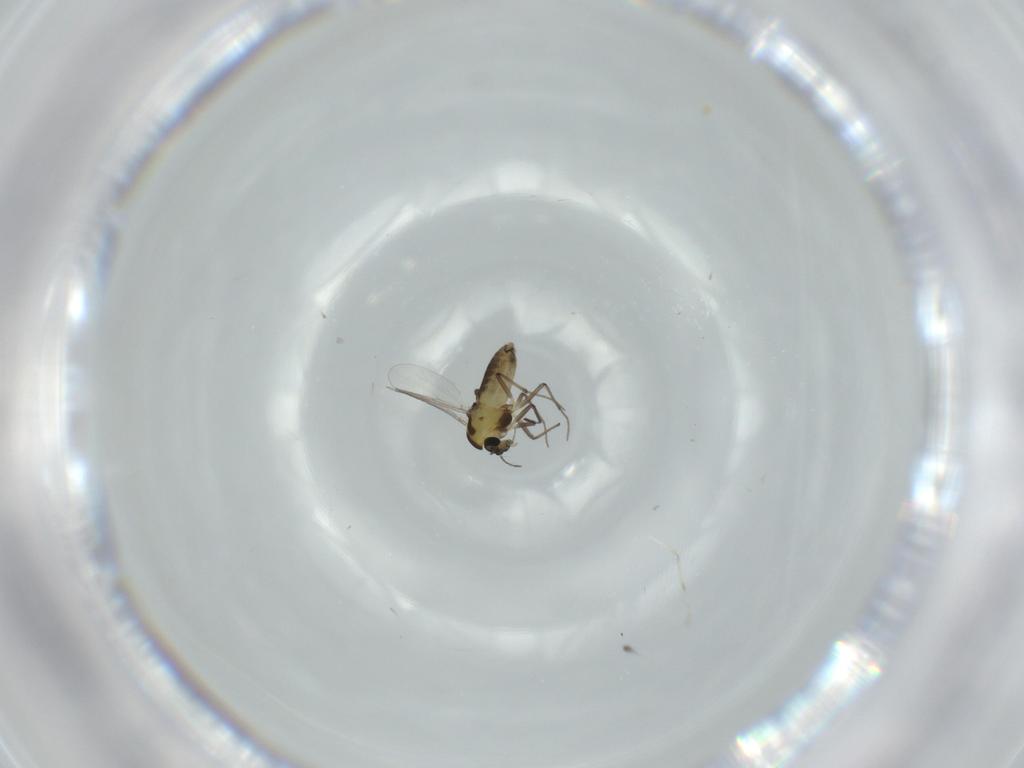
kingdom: Animalia
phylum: Arthropoda
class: Insecta
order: Diptera
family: Cecidomyiidae
